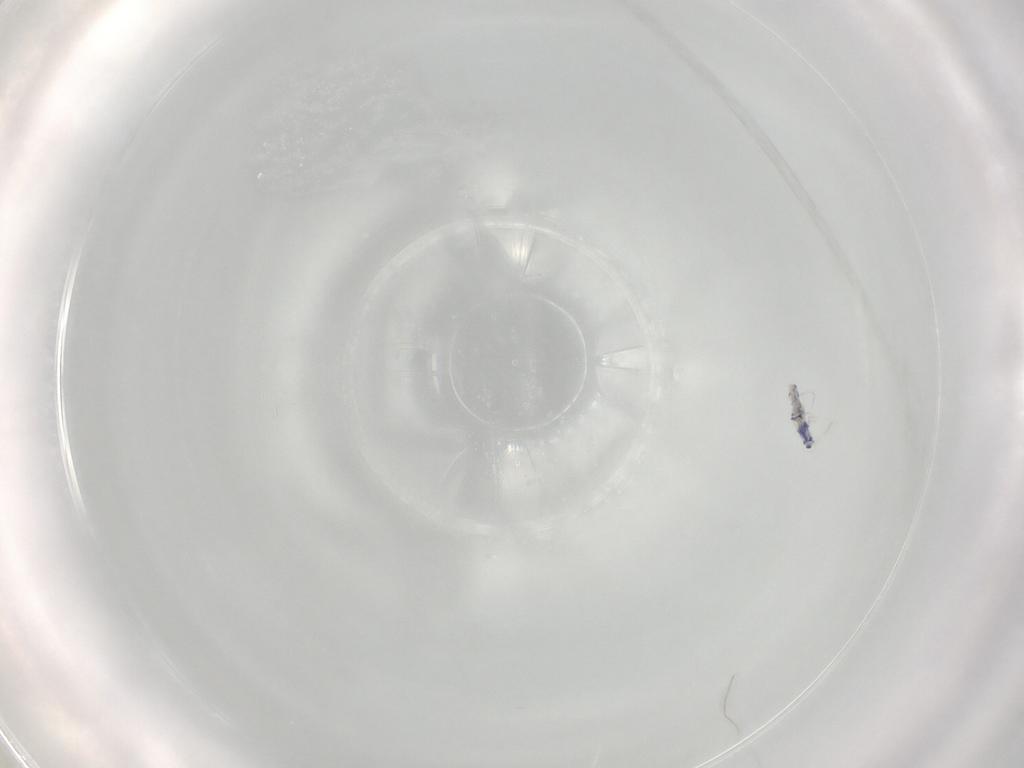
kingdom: Animalia
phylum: Arthropoda
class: Collembola
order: Entomobryomorpha
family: Entomobryidae
